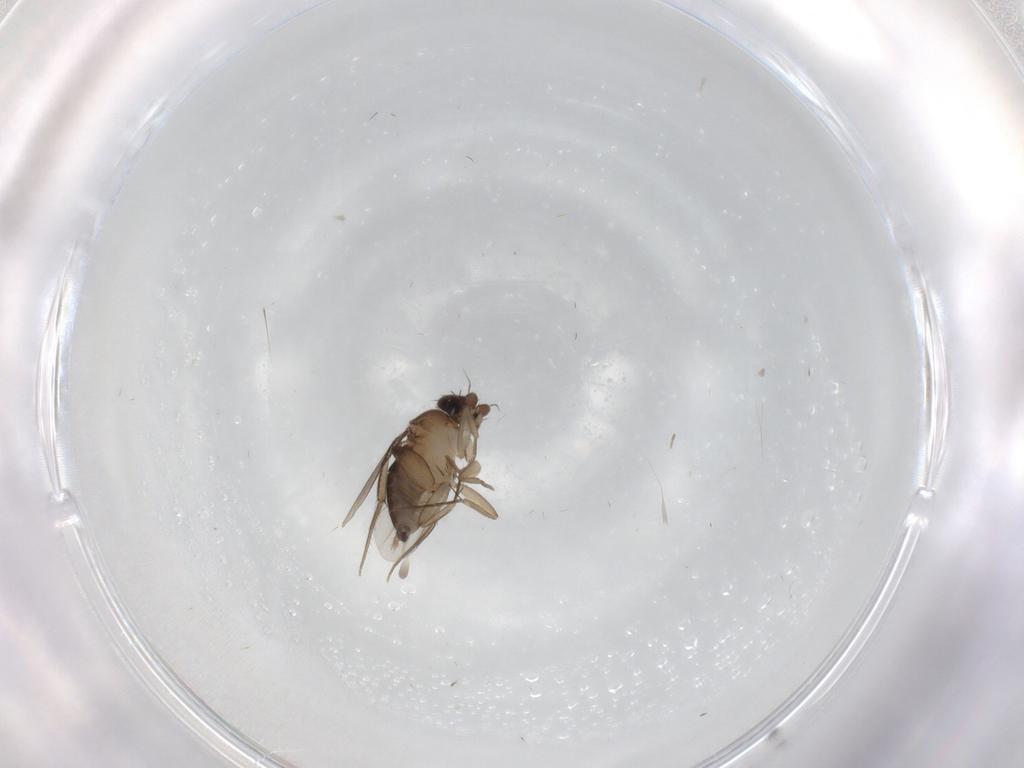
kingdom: Animalia
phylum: Arthropoda
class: Insecta
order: Diptera
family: Phoridae
